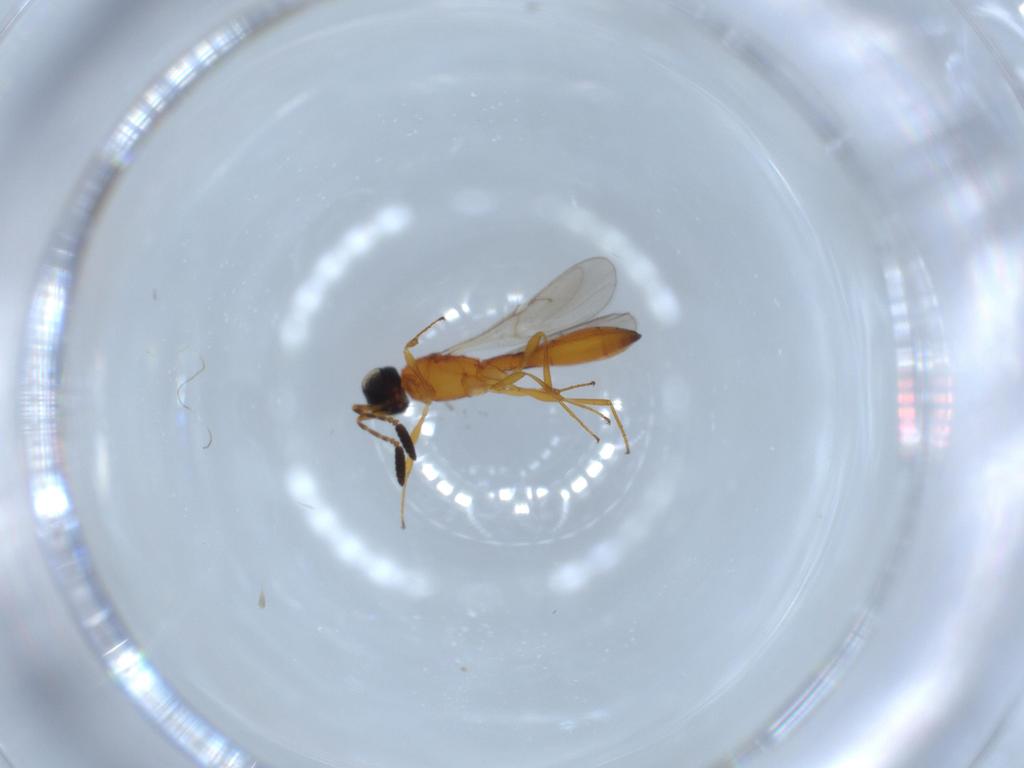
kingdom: Animalia
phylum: Arthropoda
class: Insecta
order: Hymenoptera
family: Scelionidae
